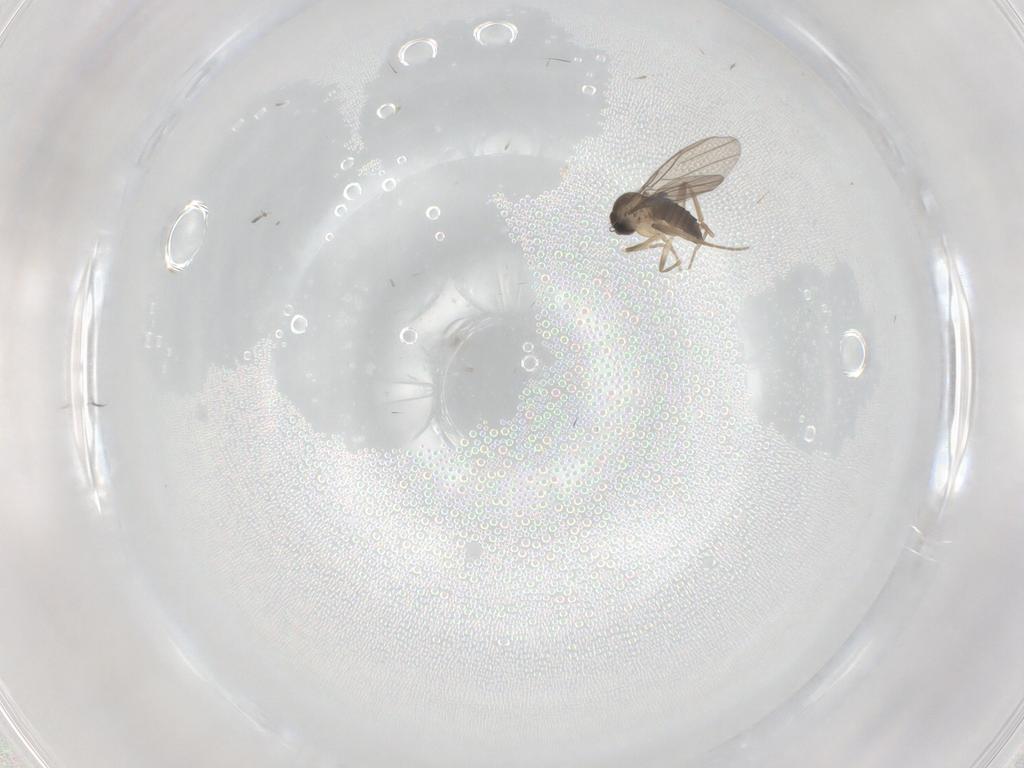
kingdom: Animalia
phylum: Arthropoda
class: Insecta
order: Diptera
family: Phoridae
